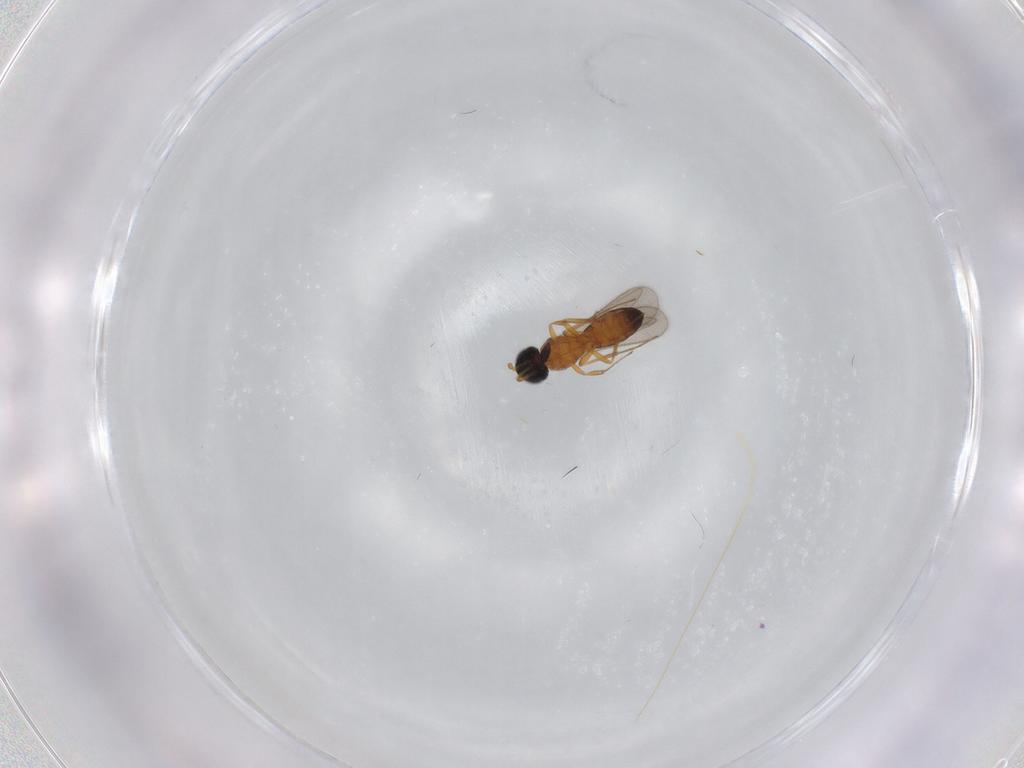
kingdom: Animalia
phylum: Arthropoda
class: Insecta
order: Hymenoptera
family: Scelionidae
